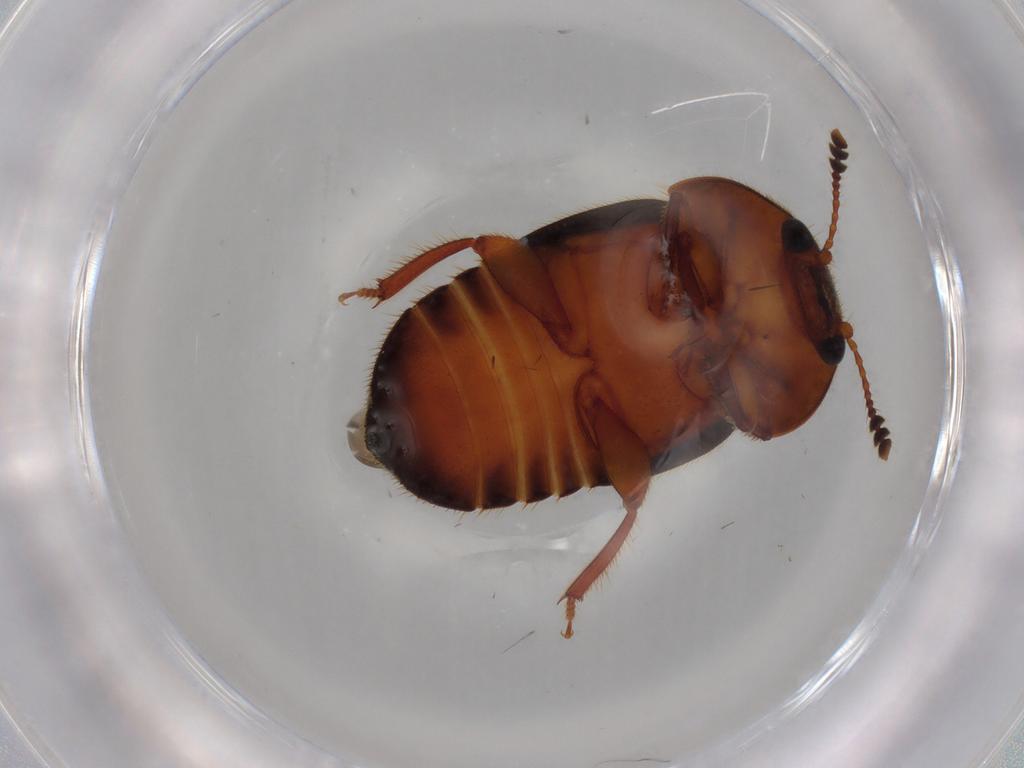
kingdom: Animalia
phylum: Arthropoda
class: Insecta
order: Coleoptera
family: Nitidulidae
